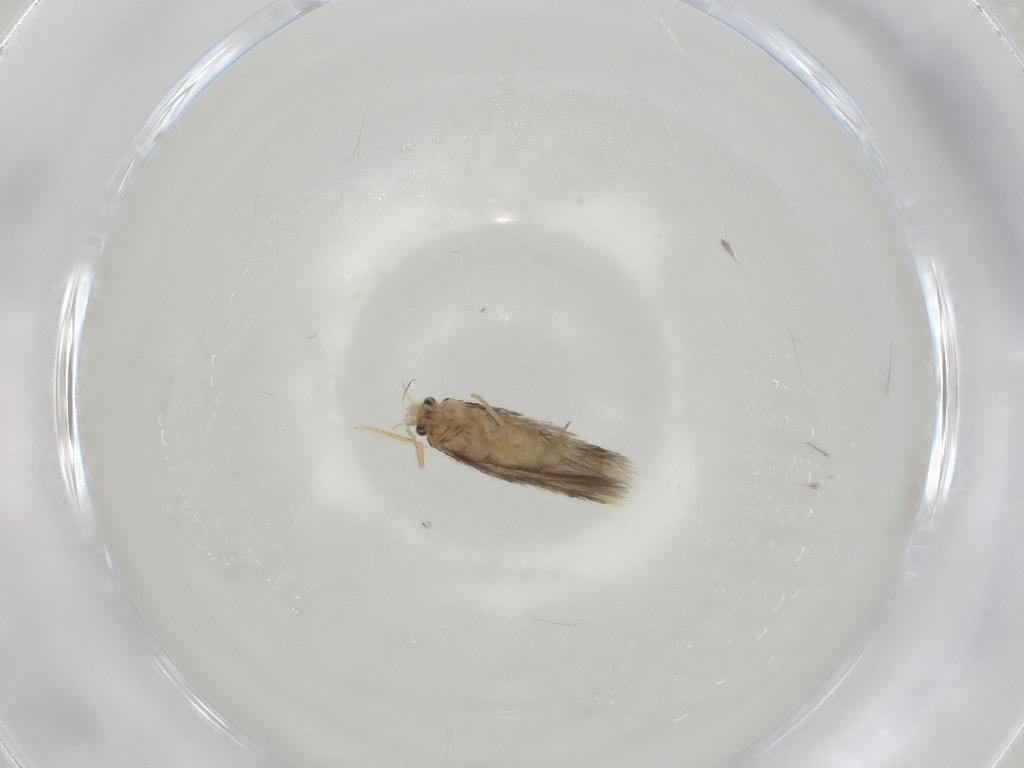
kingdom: Animalia
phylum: Arthropoda
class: Insecta
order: Lepidoptera
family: Nepticulidae
